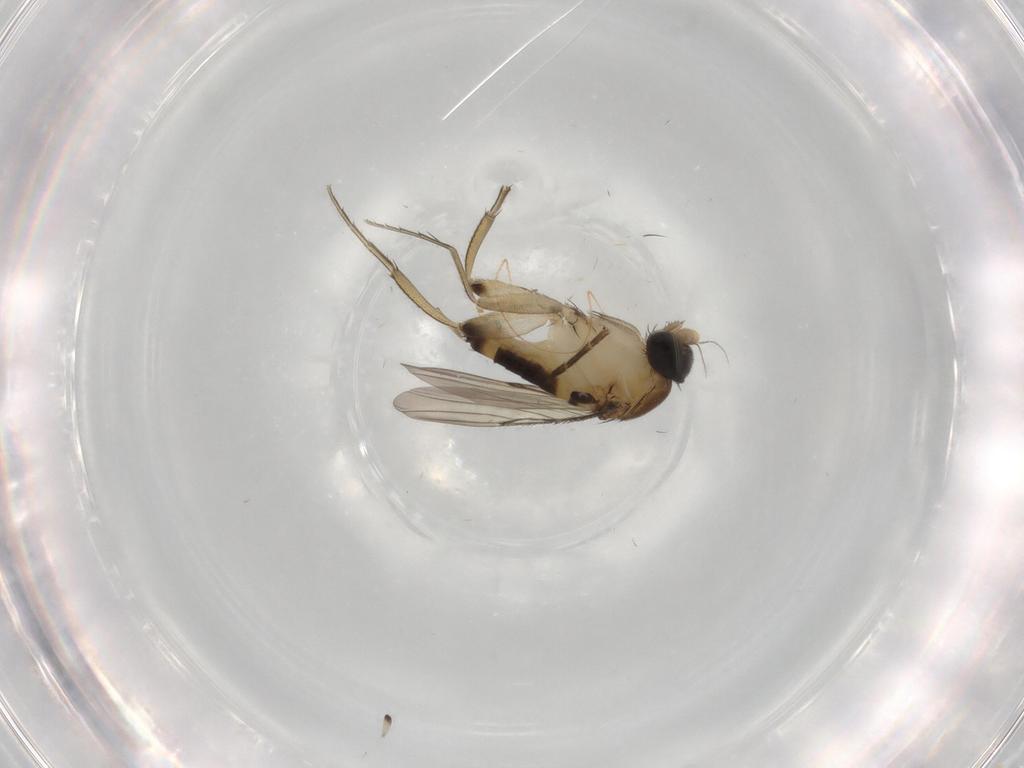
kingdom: Animalia
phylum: Arthropoda
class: Insecta
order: Diptera
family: Phoridae
